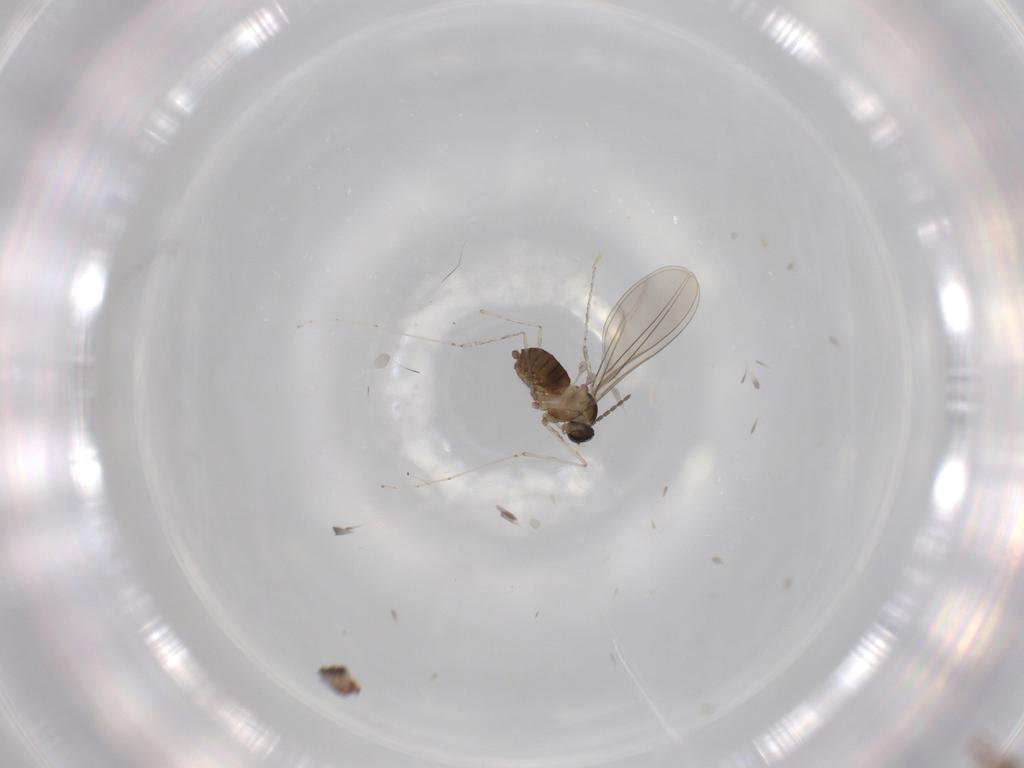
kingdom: Animalia
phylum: Arthropoda
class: Insecta
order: Diptera
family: Cecidomyiidae
